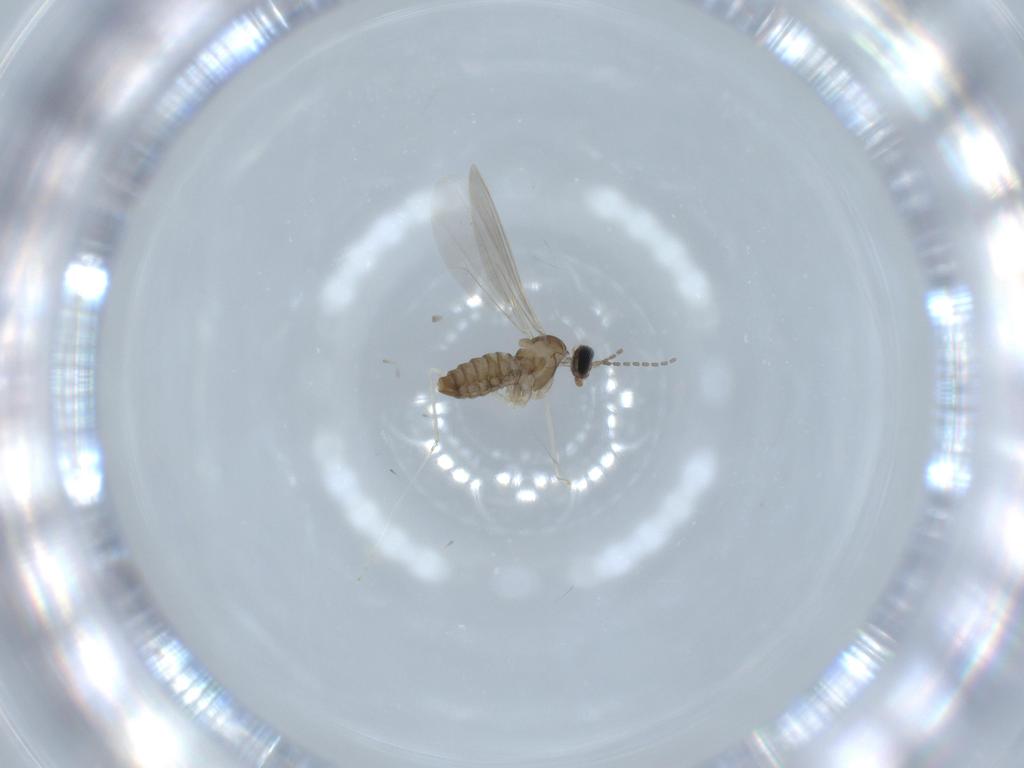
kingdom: Animalia
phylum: Arthropoda
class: Insecta
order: Diptera
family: Cecidomyiidae
